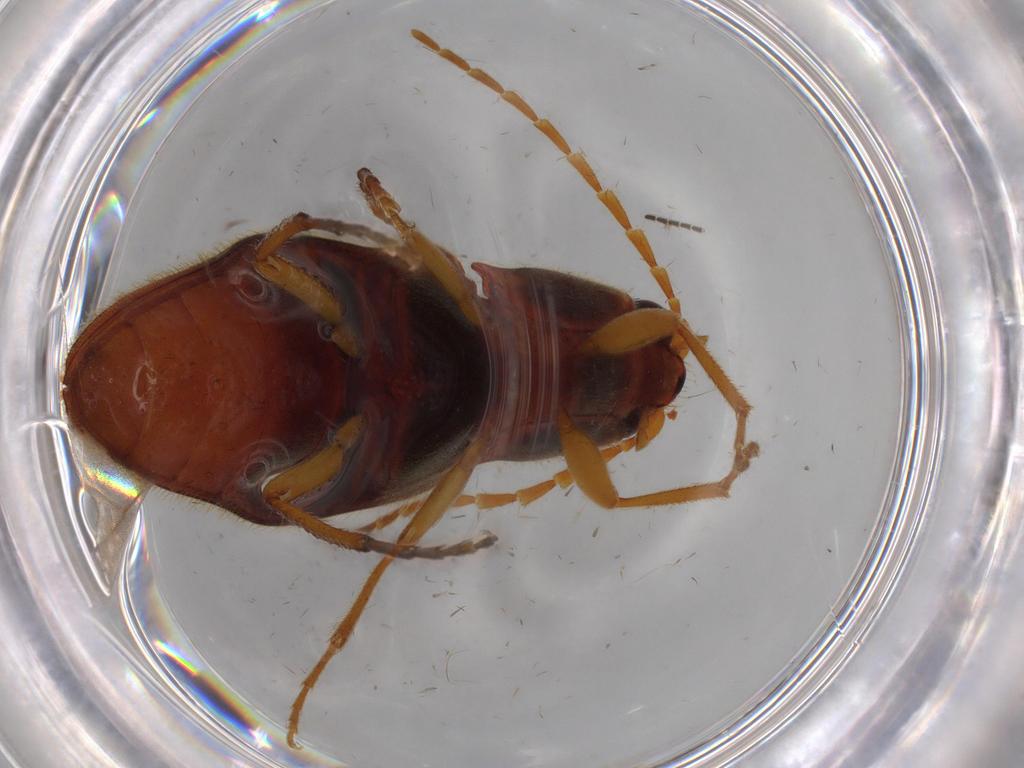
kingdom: Animalia
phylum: Arthropoda
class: Insecta
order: Coleoptera
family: Elateridae
